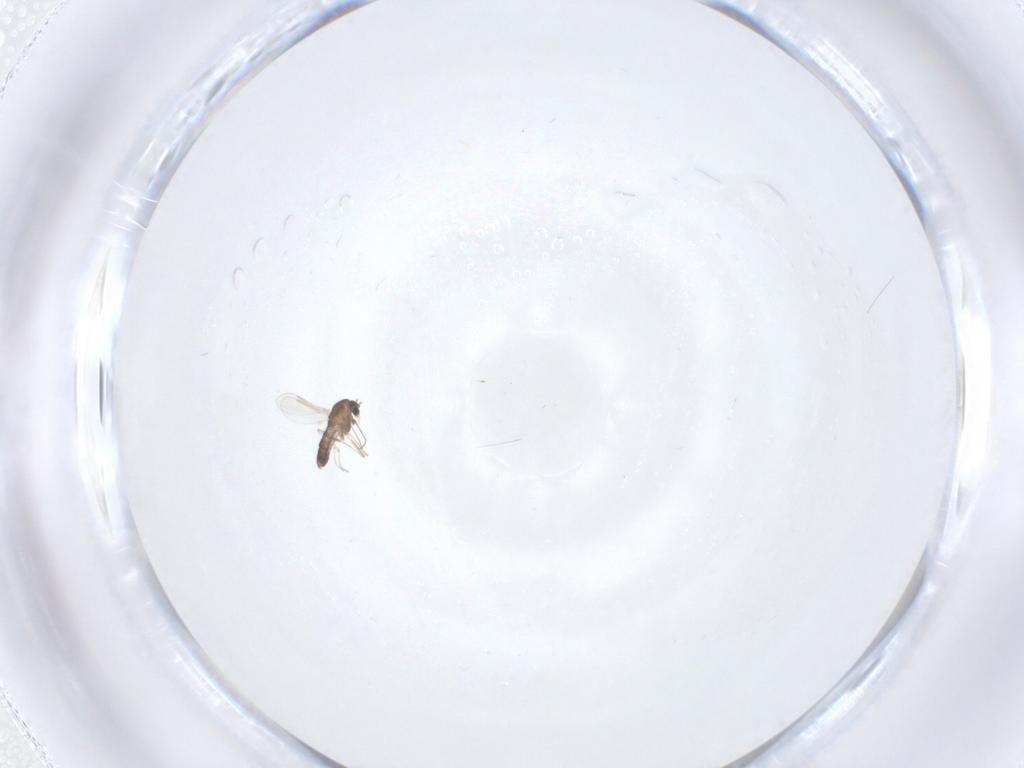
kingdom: Animalia
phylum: Arthropoda
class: Insecta
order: Diptera
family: Chironomidae
